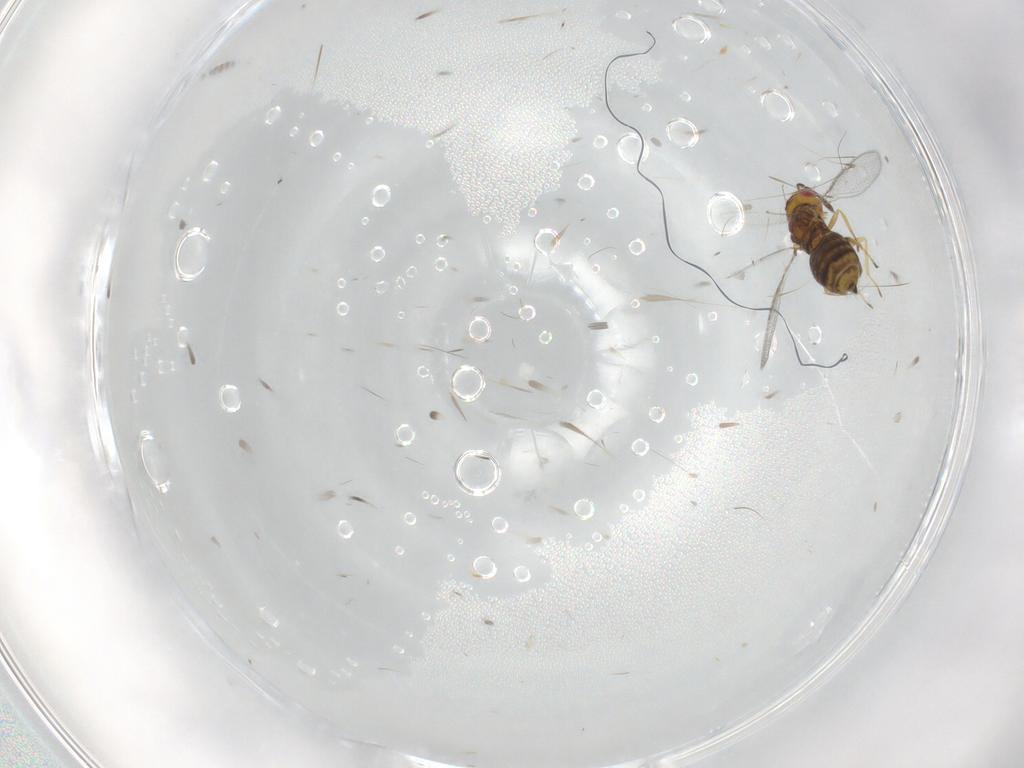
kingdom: Animalia
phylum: Arthropoda
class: Insecta
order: Hymenoptera
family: Eulophidae
